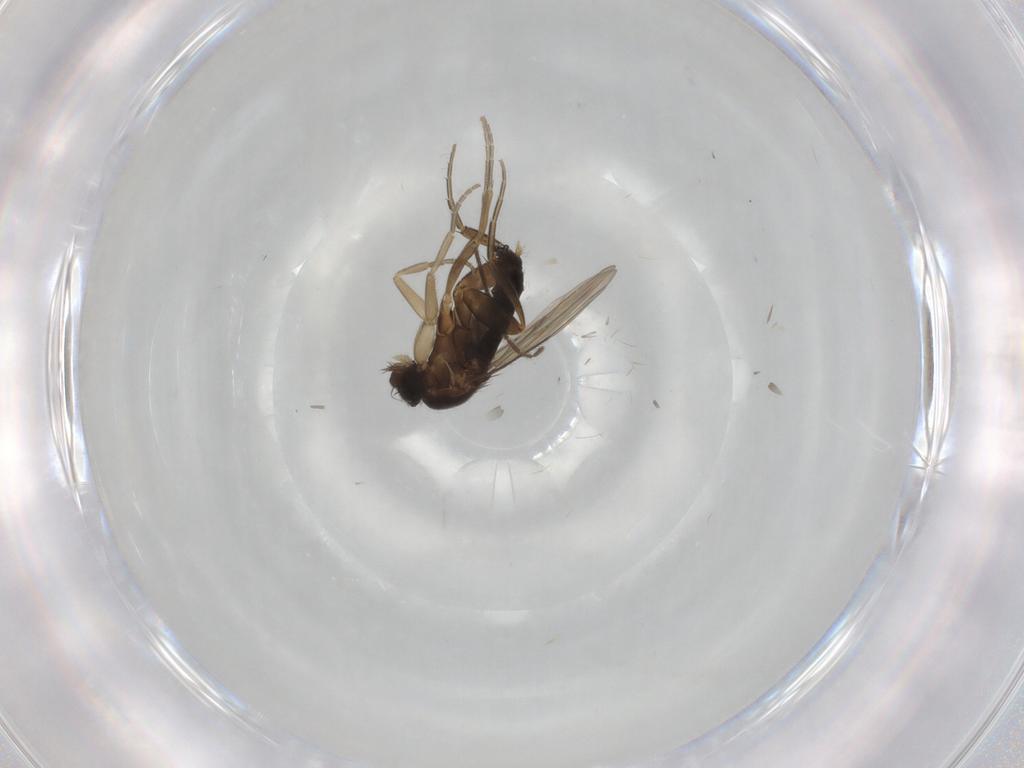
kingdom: Animalia
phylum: Arthropoda
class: Insecta
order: Diptera
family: Phoridae
